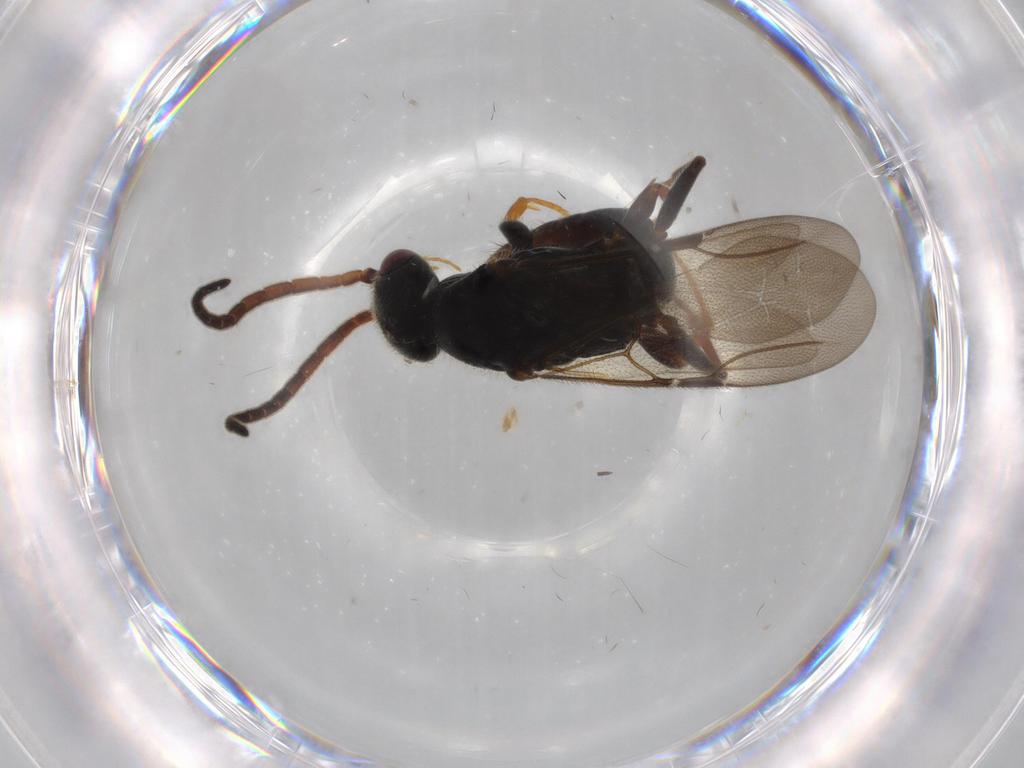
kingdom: Animalia
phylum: Arthropoda
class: Insecta
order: Hymenoptera
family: Bethylidae
